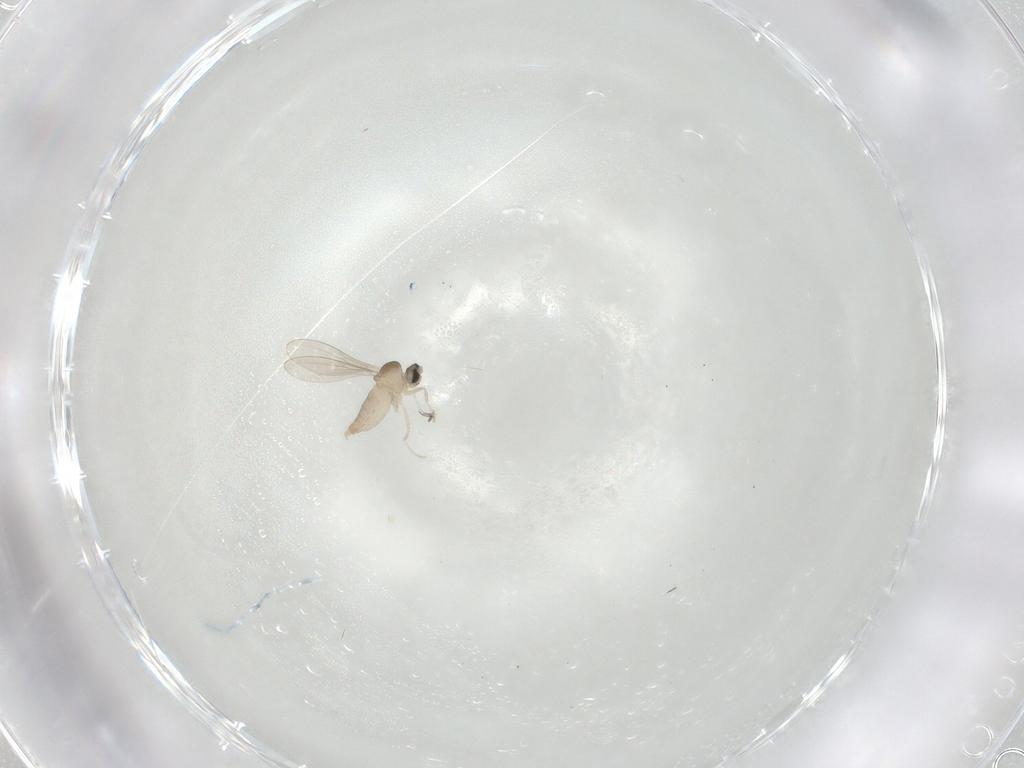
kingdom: Animalia
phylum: Arthropoda
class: Insecta
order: Diptera
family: Cecidomyiidae
